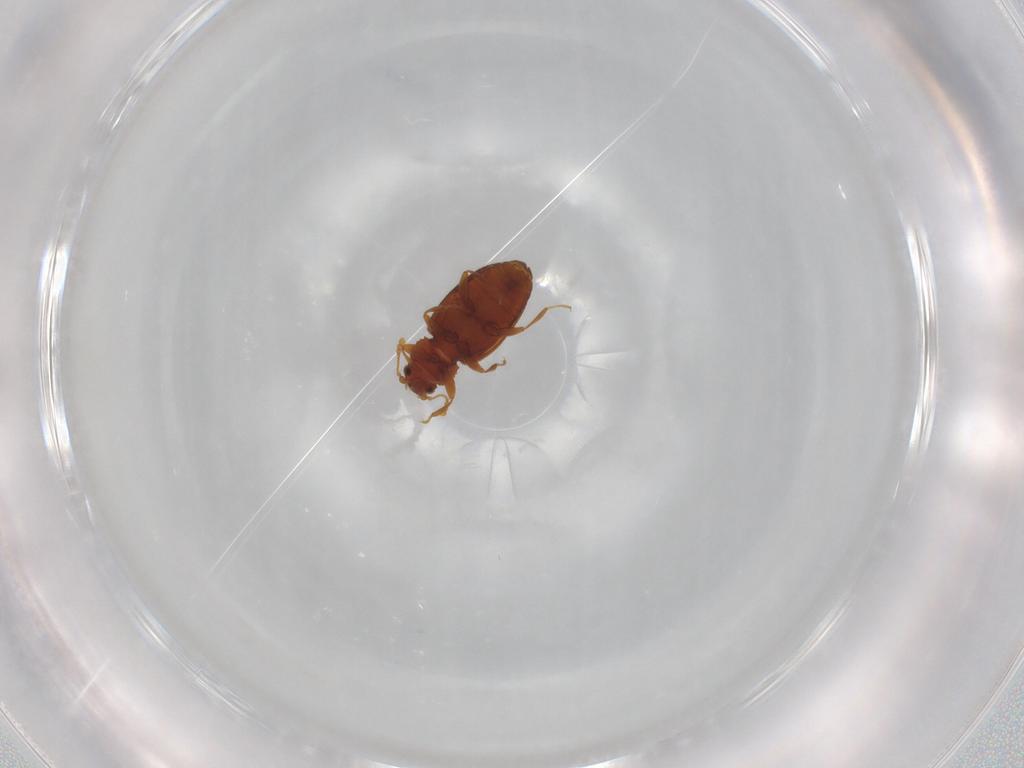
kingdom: Animalia
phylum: Arthropoda
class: Insecta
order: Coleoptera
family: Latridiidae
